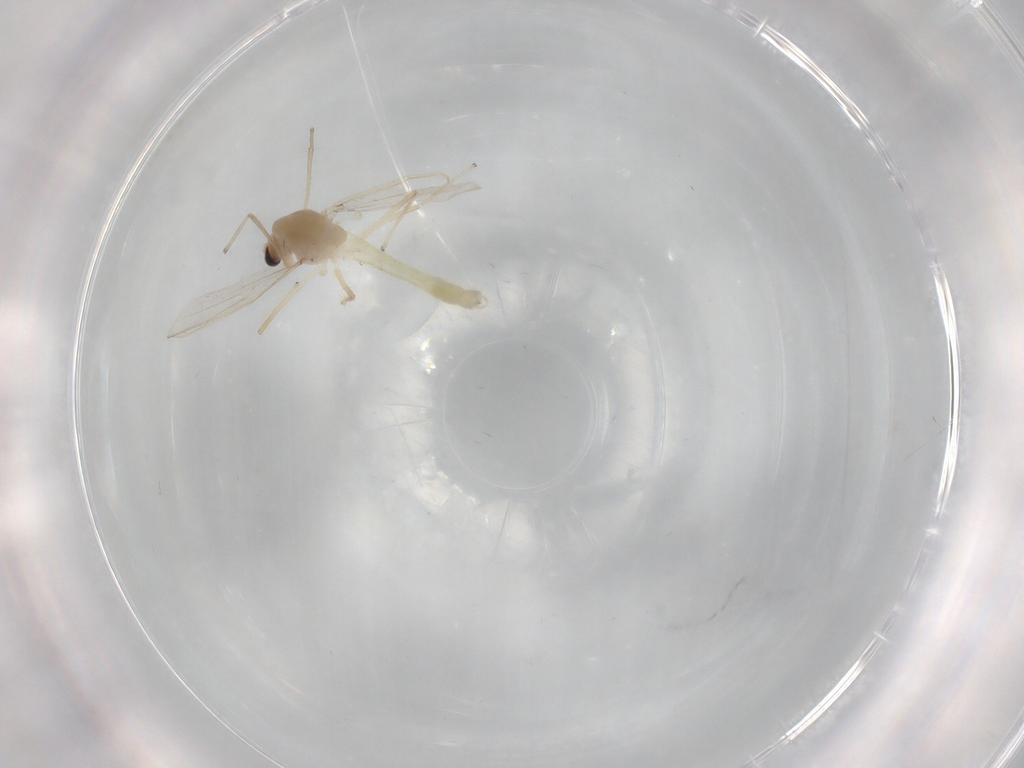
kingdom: Animalia
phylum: Arthropoda
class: Insecta
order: Diptera
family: Chironomidae
